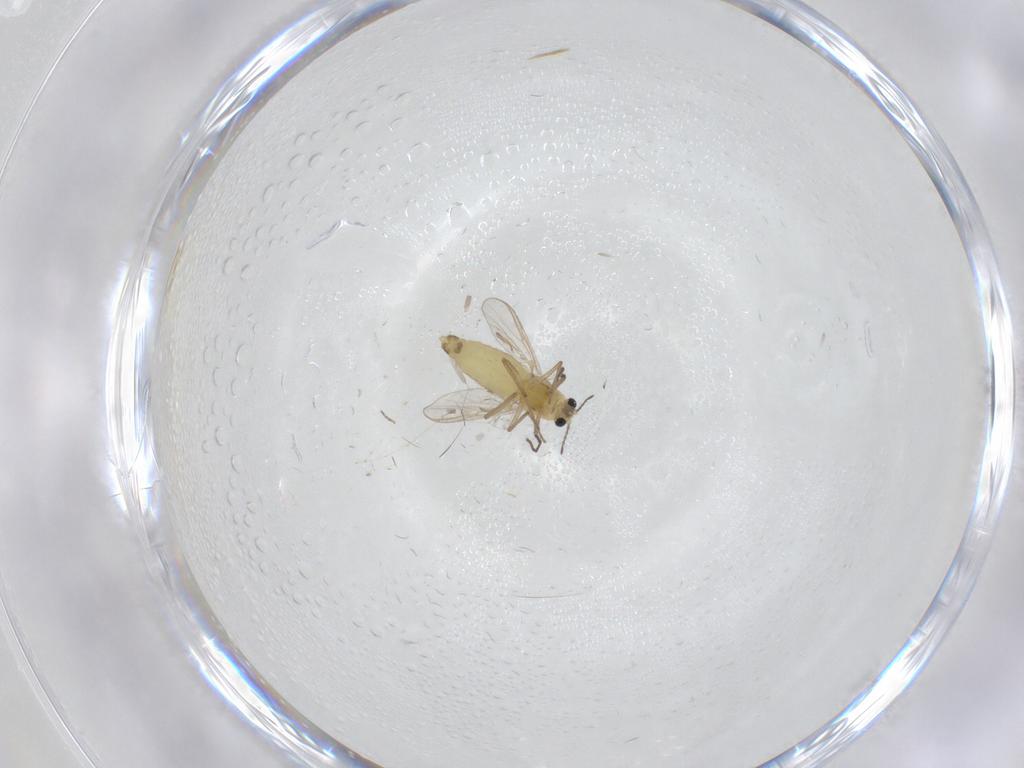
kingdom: Animalia
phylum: Arthropoda
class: Insecta
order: Diptera
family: Chironomidae
